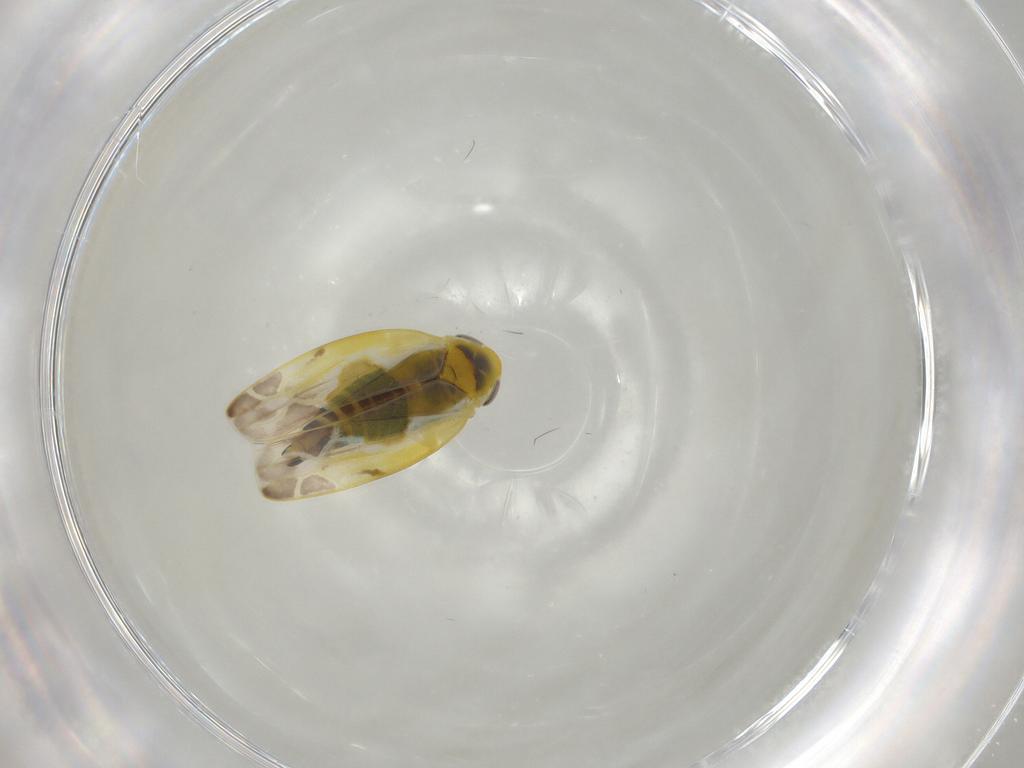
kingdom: Animalia
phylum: Arthropoda
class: Insecta
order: Hemiptera
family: Cicadellidae
